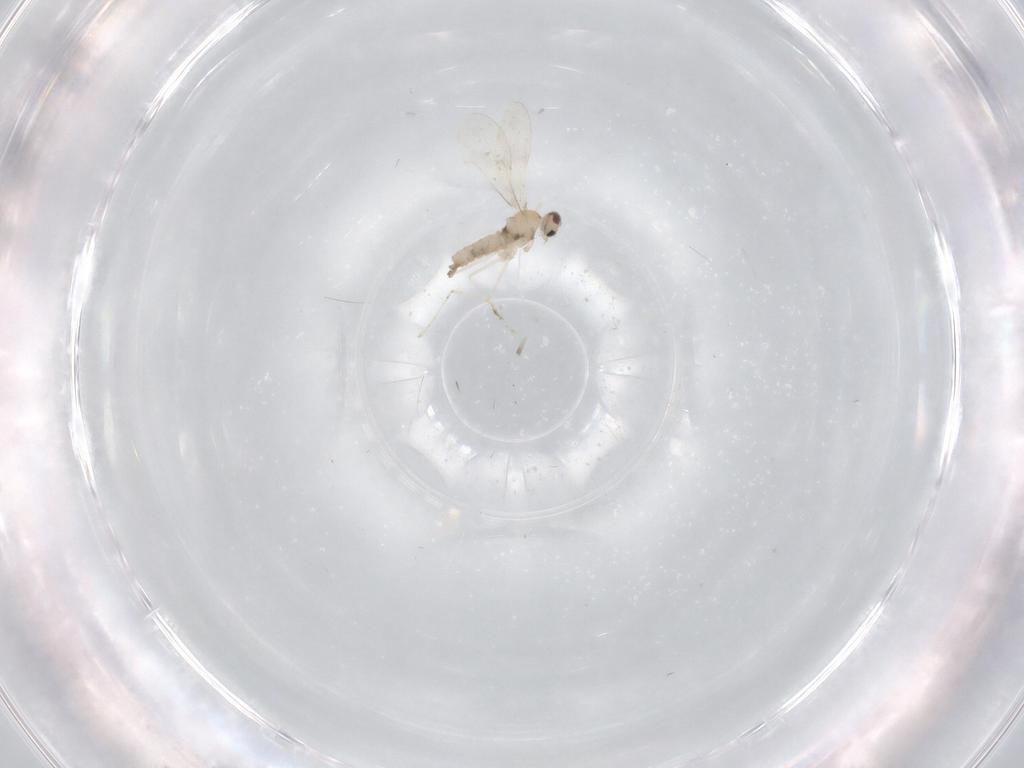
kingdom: Animalia
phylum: Arthropoda
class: Insecta
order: Diptera
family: Cecidomyiidae
